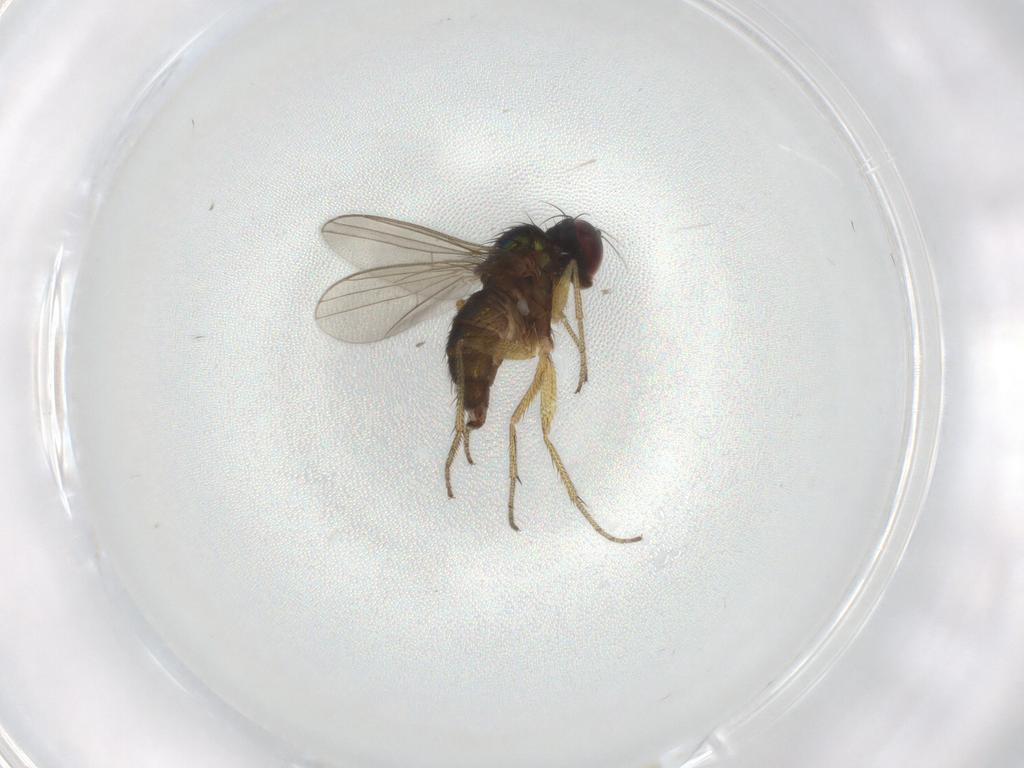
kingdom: Animalia
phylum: Arthropoda
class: Insecta
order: Diptera
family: Dolichopodidae
